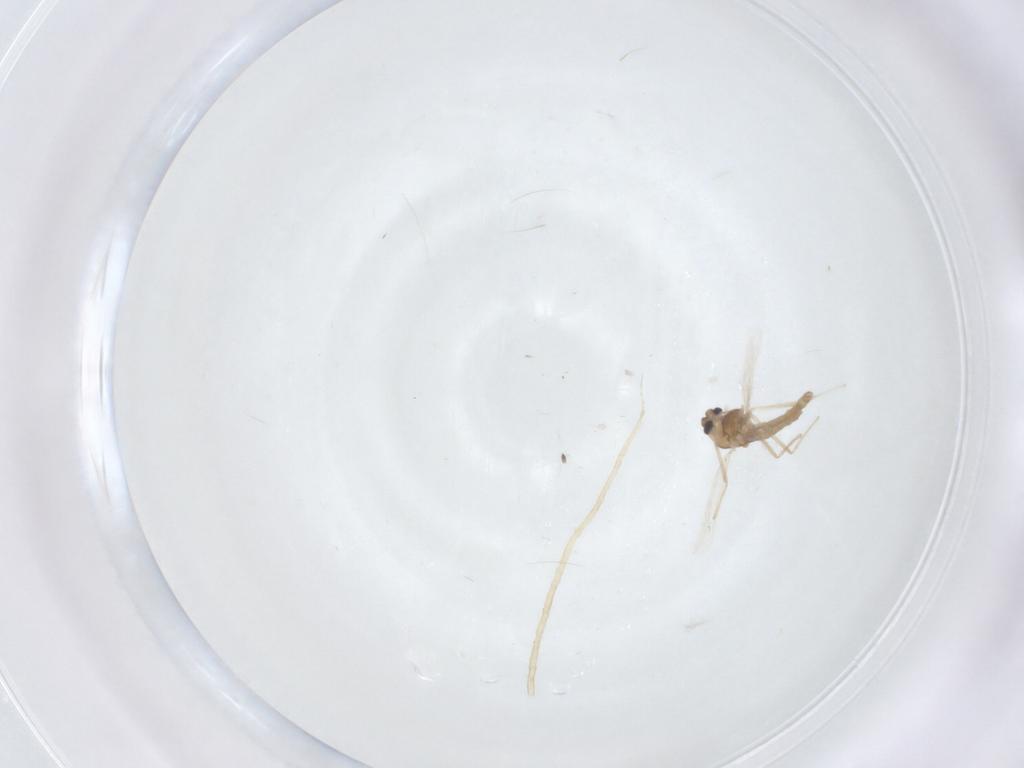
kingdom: Animalia
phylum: Arthropoda
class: Insecta
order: Diptera
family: Chironomidae
